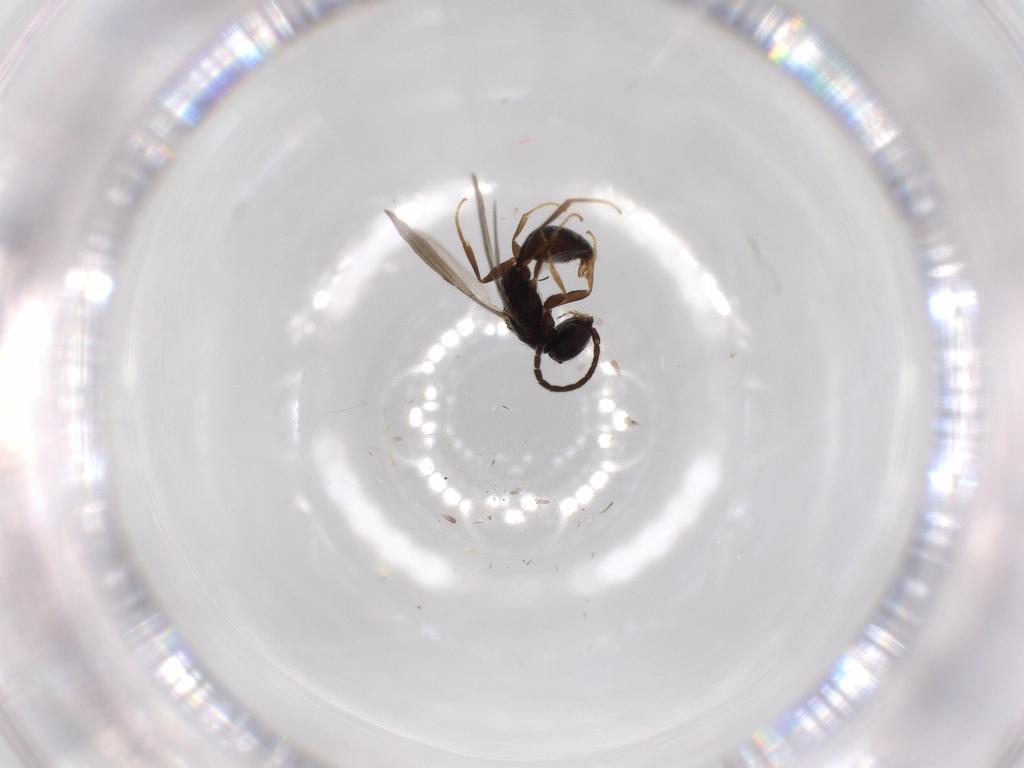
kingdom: Animalia
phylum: Arthropoda
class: Insecta
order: Hymenoptera
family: Bethylidae
